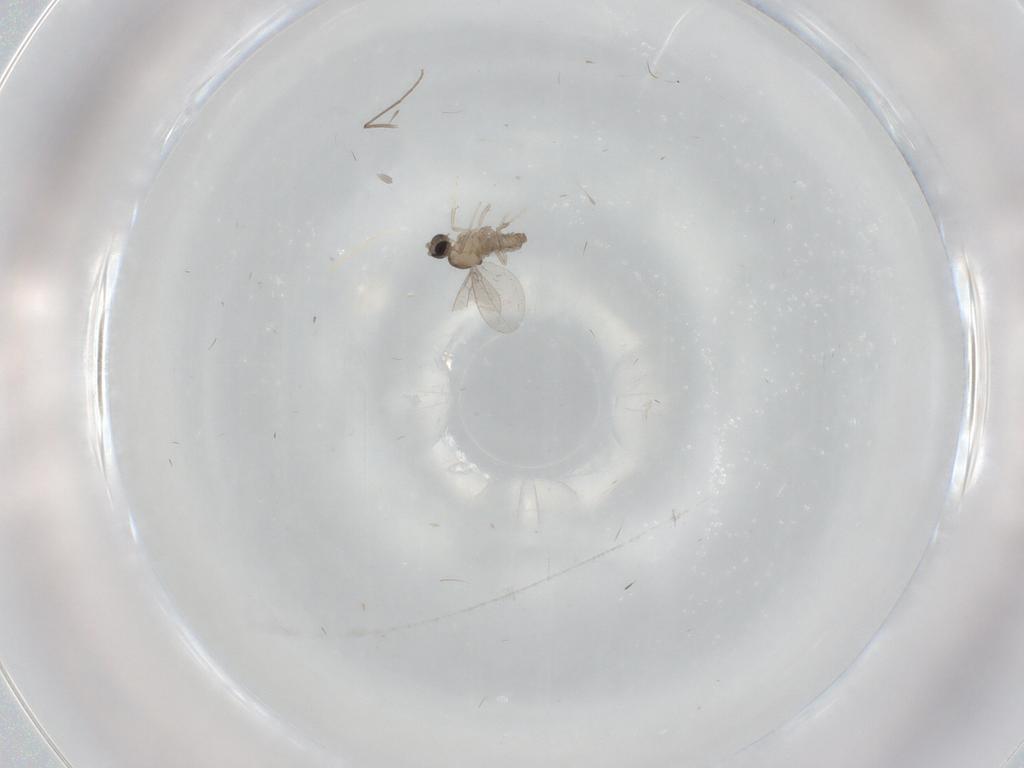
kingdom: Animalia
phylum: Arthropoda
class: Insecta
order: Diptera
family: Cecidomyiidae
